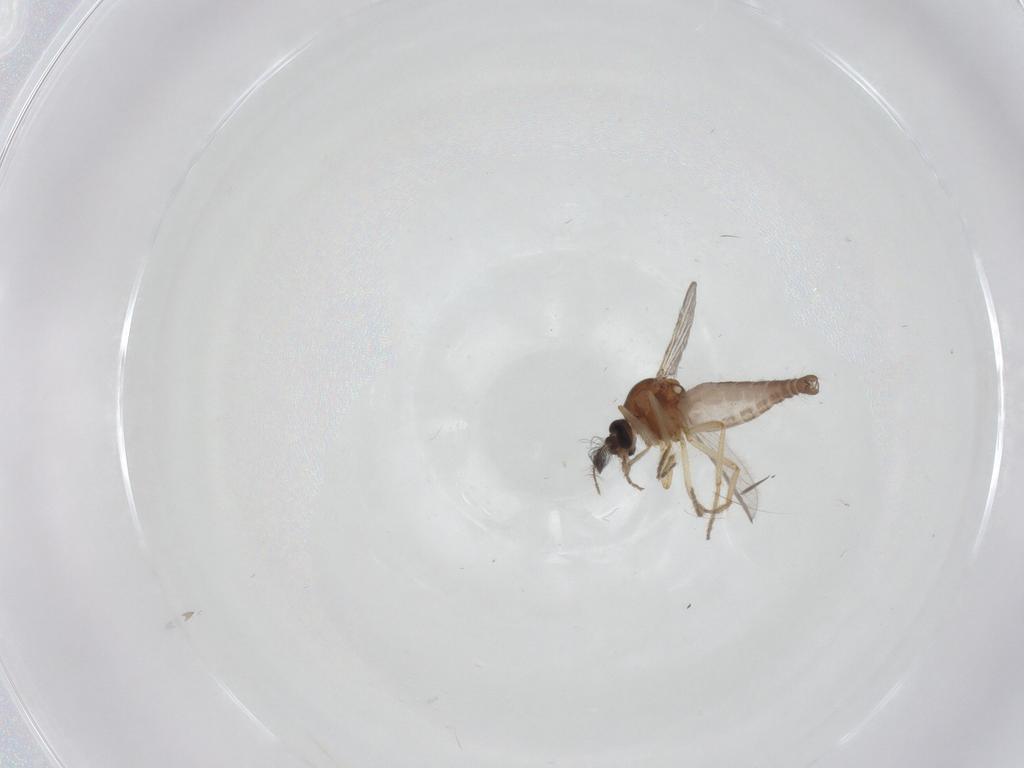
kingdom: Animalia
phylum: Arthropoda
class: Insecta
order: Diptera
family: Ceratopogonidae
